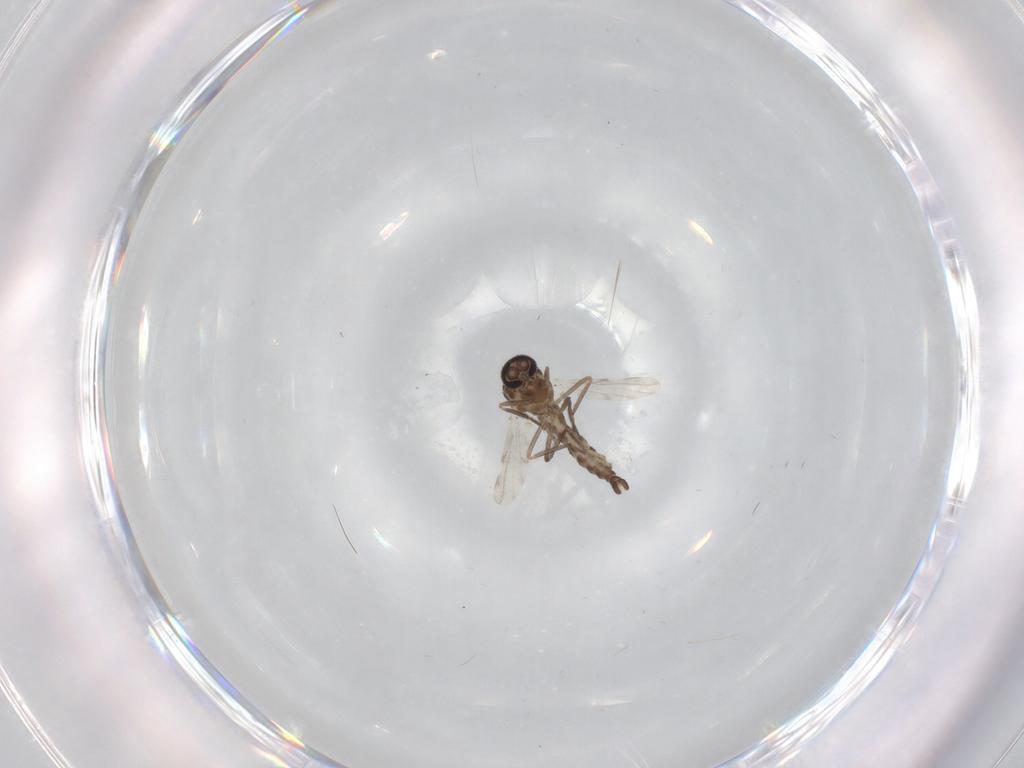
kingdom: Animalia
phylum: Arthropoda
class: Insecta
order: Diptera
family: Ceratopogonidae
